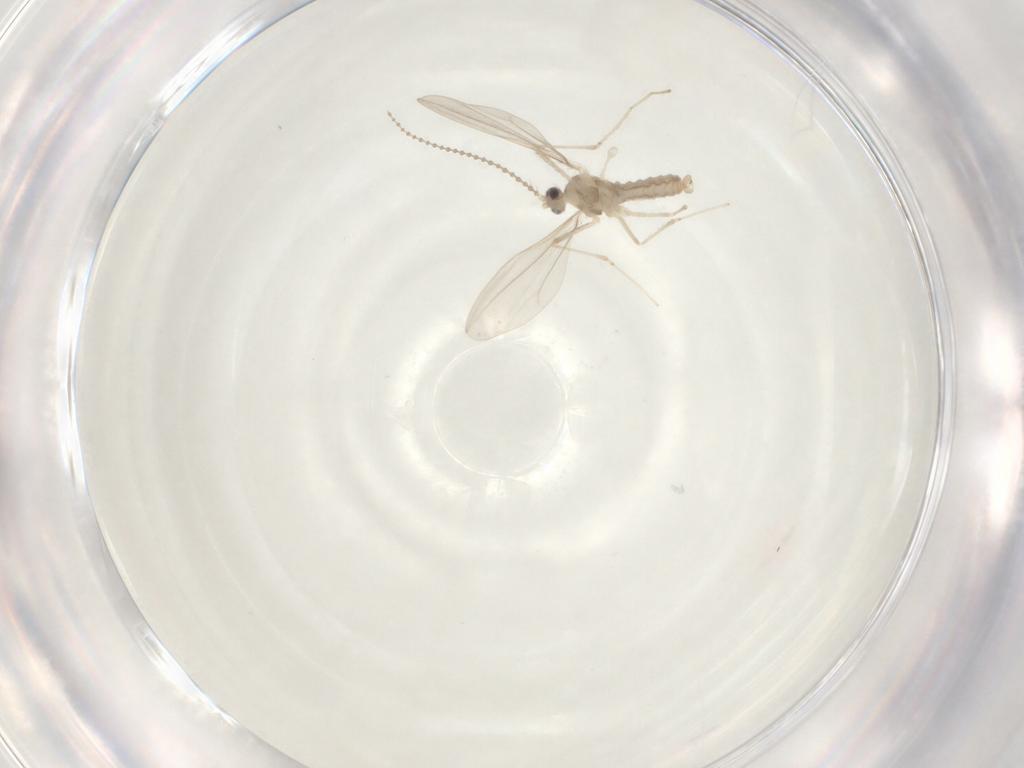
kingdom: Animalia
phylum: Arthropoda
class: Insecta
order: Diptera
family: Cecidomyiidae
